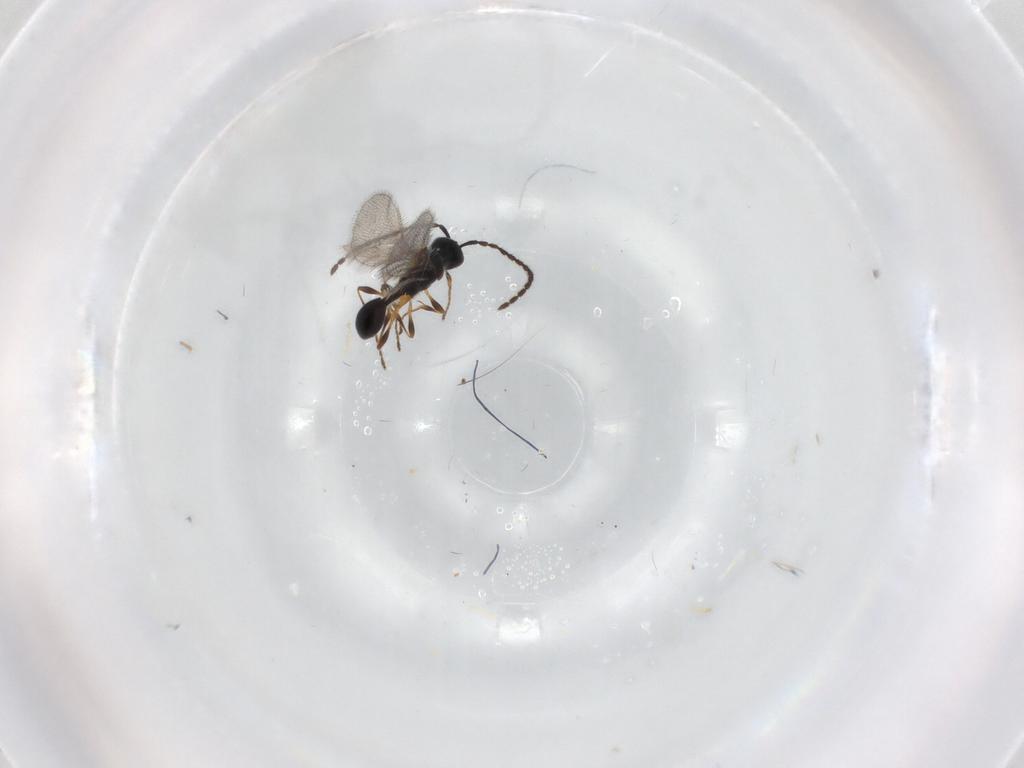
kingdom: Animalia
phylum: Arthropoda
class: Insecta
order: Hymenoptera
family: Diapriidae
